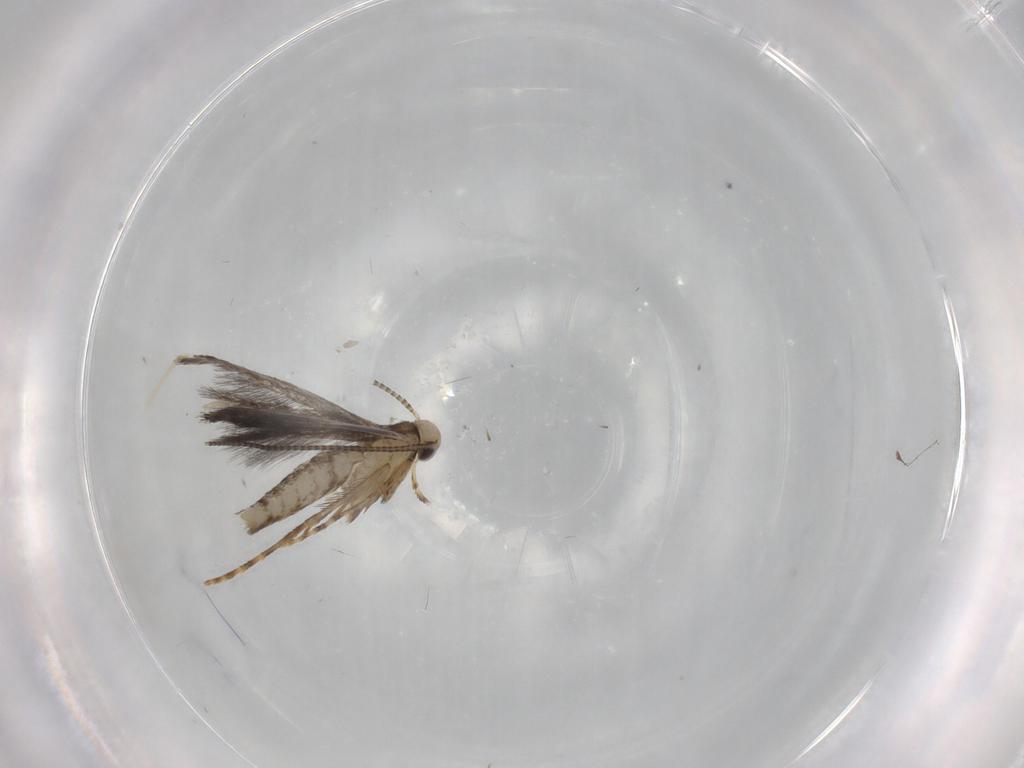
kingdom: Animalia
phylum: Arthropoda
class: Insecta
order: Lepidoptera
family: Gracillariidae
